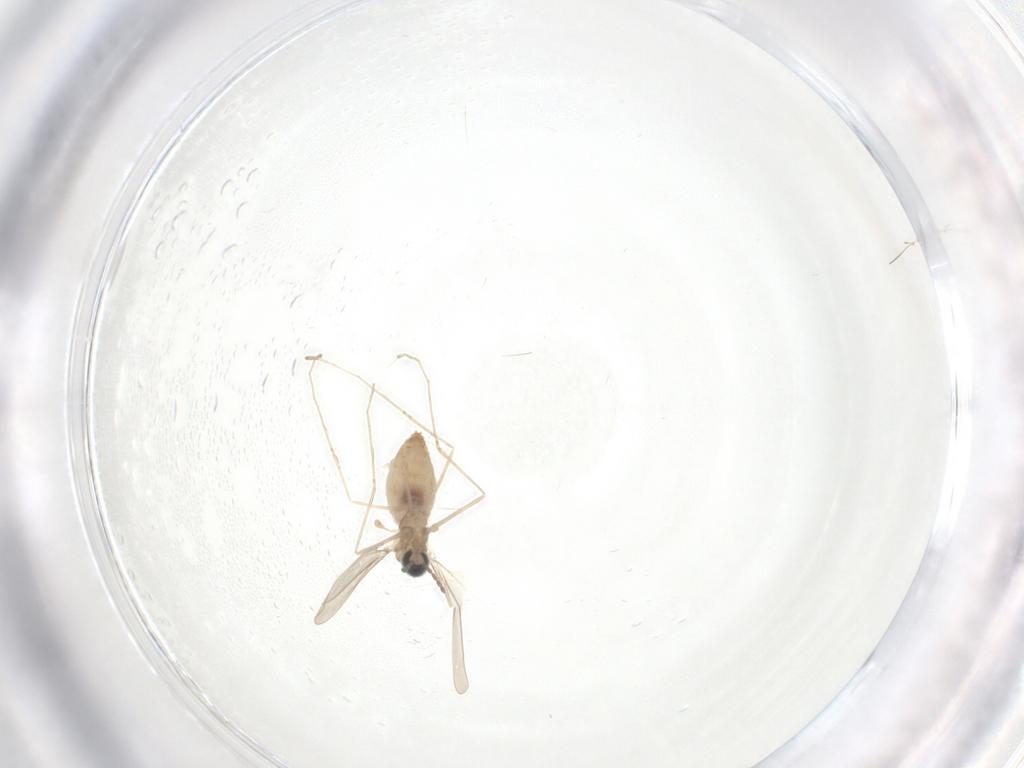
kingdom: Animalia
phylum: Arthropoda
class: Insecta
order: Diptera
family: Cecidomyiidae
